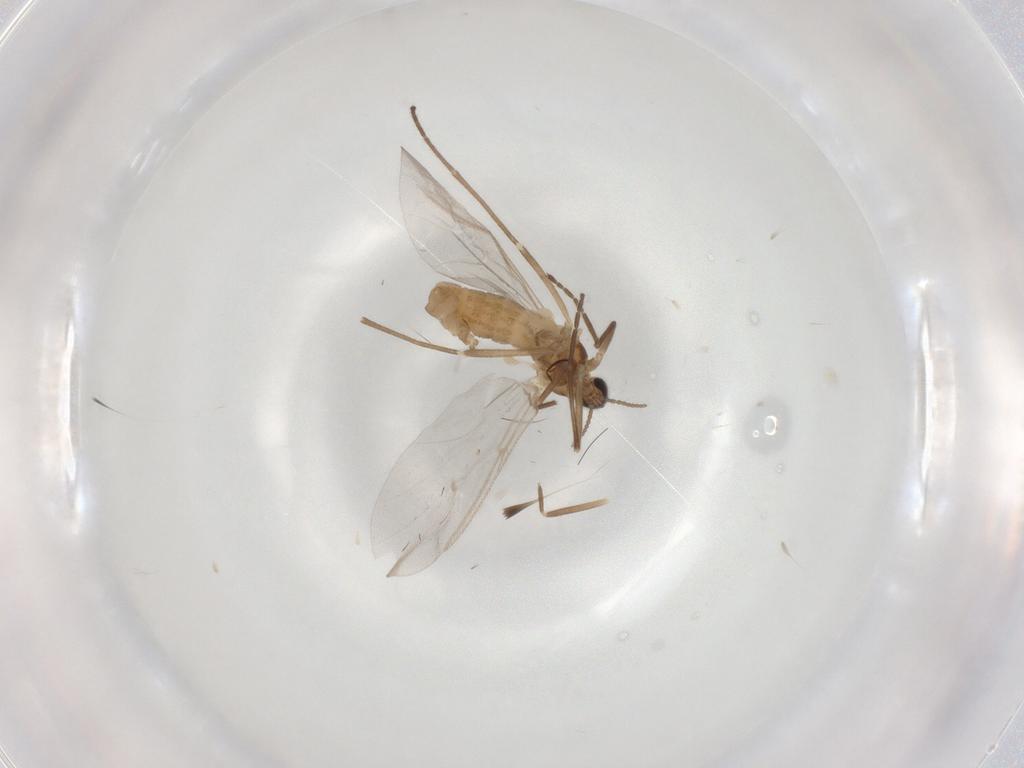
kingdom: Animalia
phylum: Arthropoda
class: Insecta
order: Diptera
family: Cecidomyiidae
